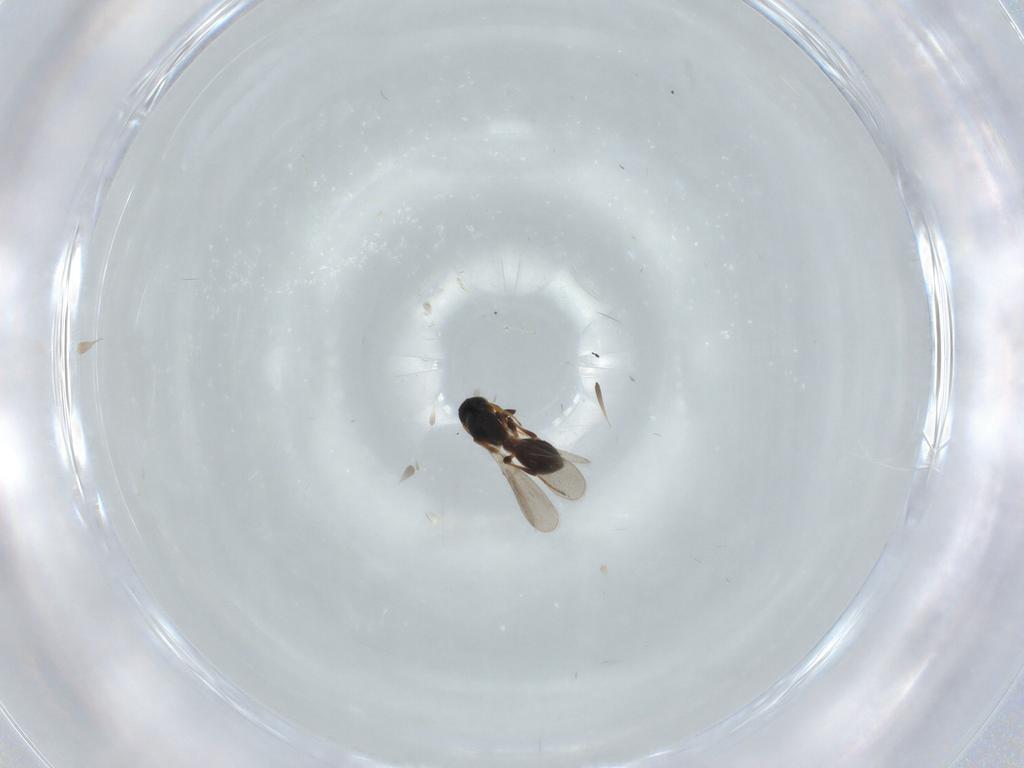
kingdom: Animalia
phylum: Arthropoda
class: Insecta
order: Hymenoptera
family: Platygastridae
